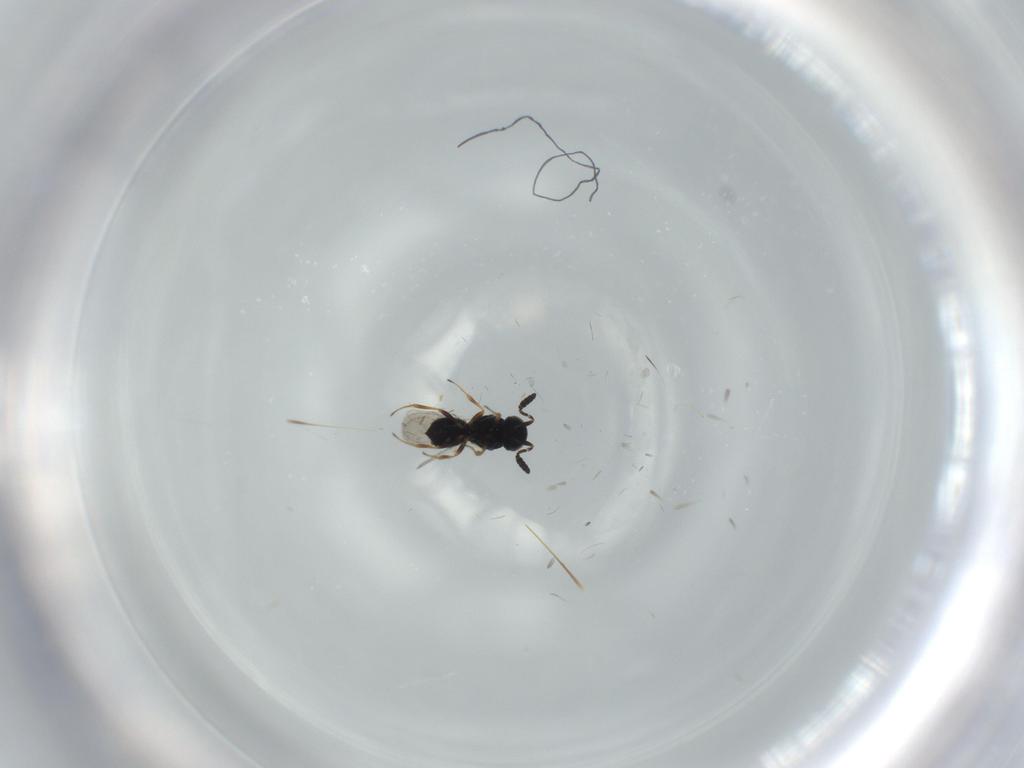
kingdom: Animalia
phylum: Arthropoda
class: Insecta
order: Hymenoptera
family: Scelionidae
